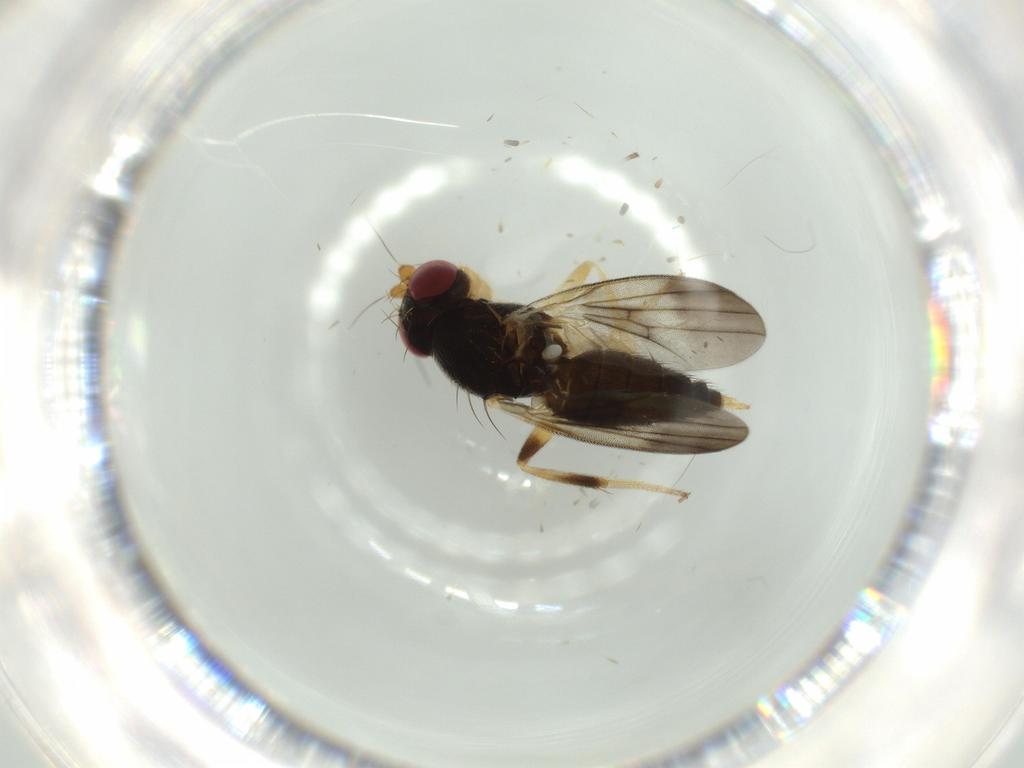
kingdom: Animalia
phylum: Arthropoda
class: Insecta
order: Diptera
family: Clusiidae
